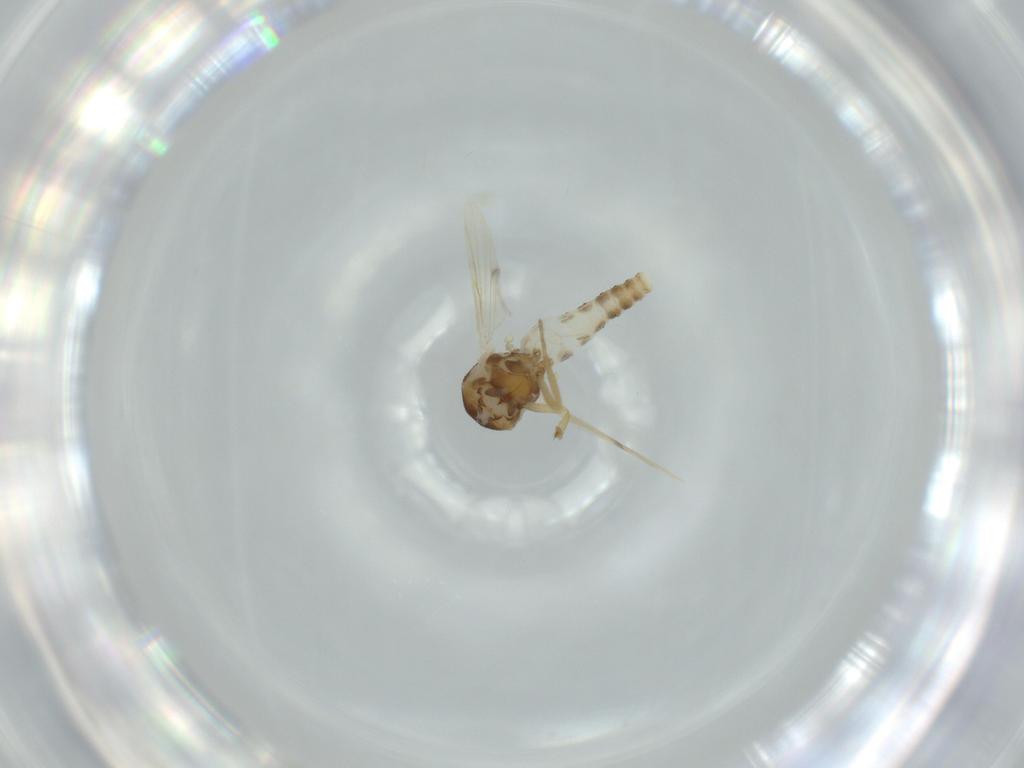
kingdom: Animalia
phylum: Arthropoda
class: Insecta
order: Diptera
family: Ceratopogonidae
